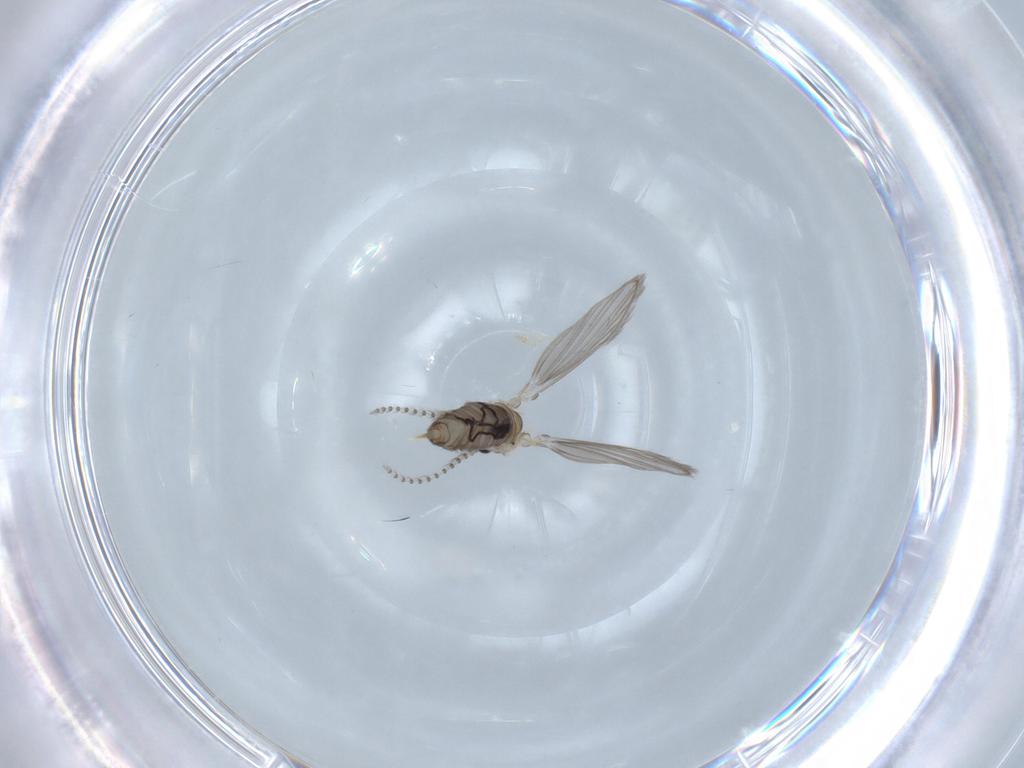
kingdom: Animalia
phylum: Arthropoda
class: Insecta
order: Diptera
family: Psychodidae
